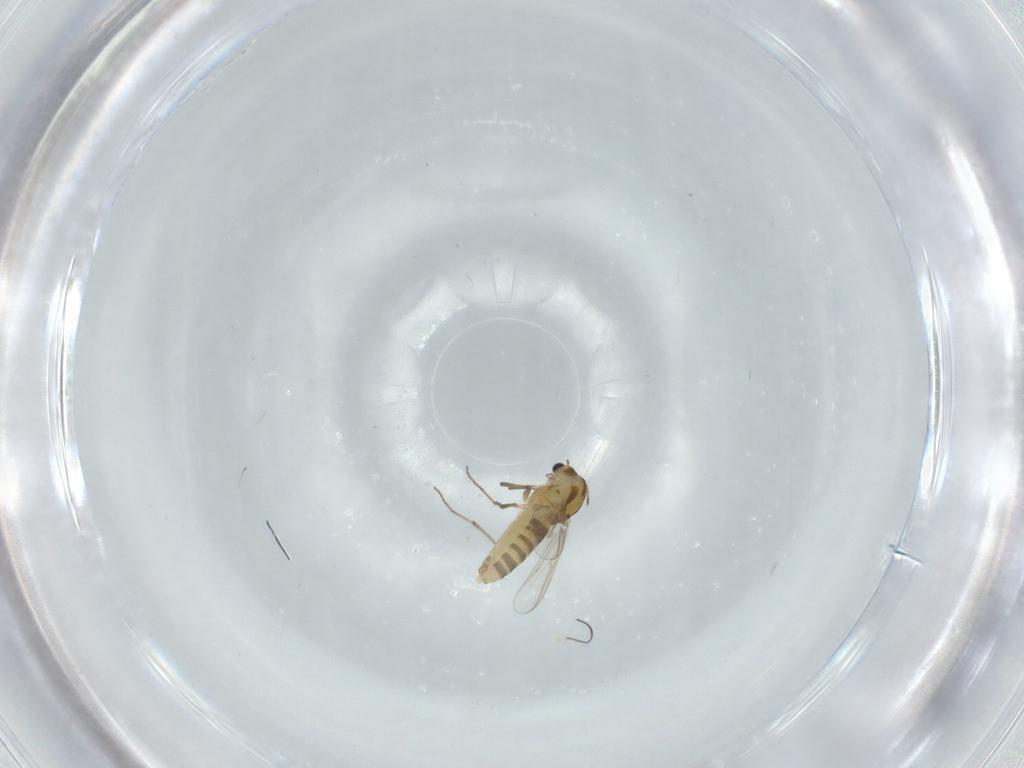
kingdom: Animalia
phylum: Arthropoda
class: Insecta
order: Diptera
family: Chironomidae
